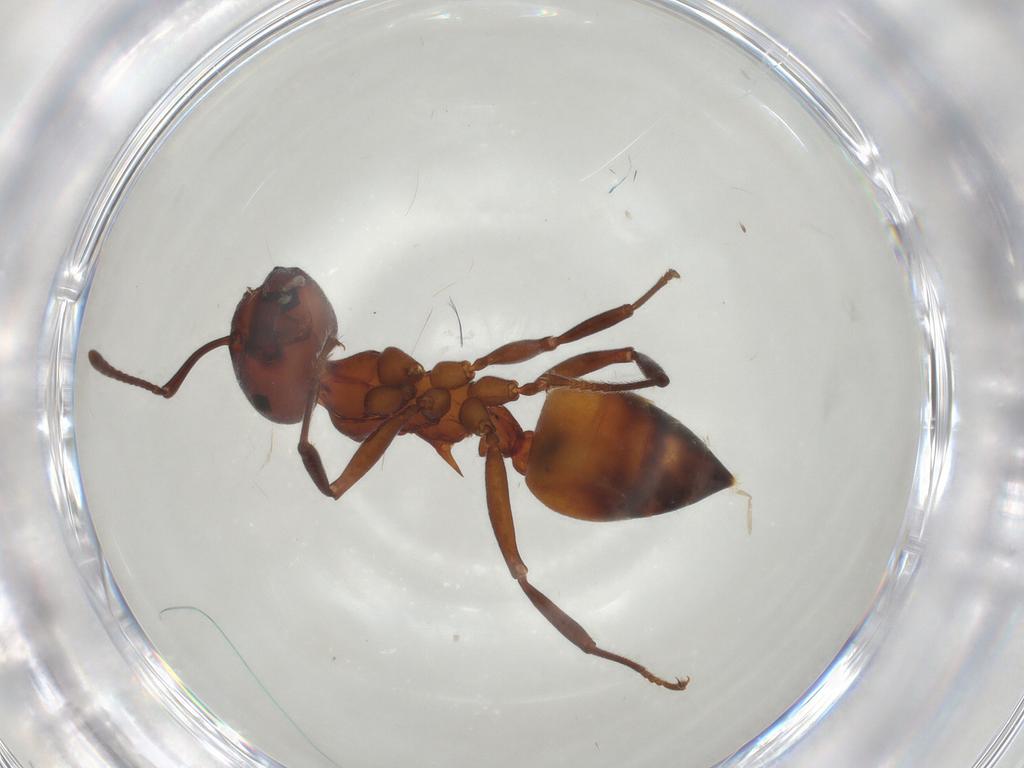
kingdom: Animalia
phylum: Arthropoda
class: Insecta
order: Hymenoptera
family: Formicidae
